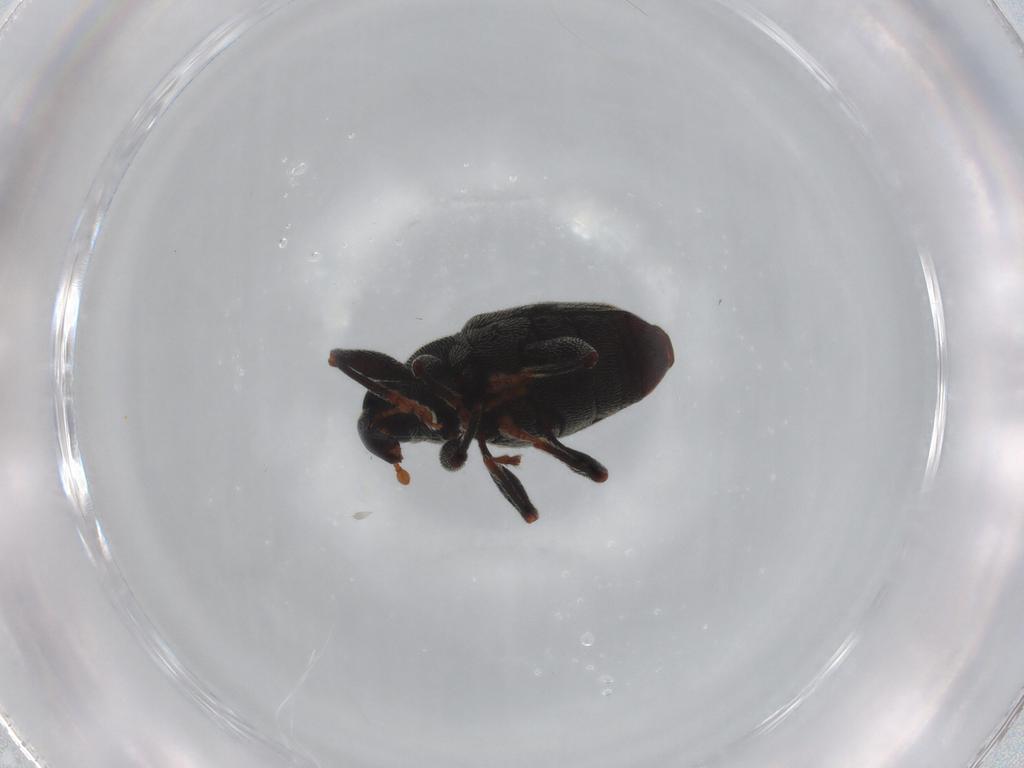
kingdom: Animalia
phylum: Arthropoda
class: Insecta
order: Coleoptera
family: Curculionidae
